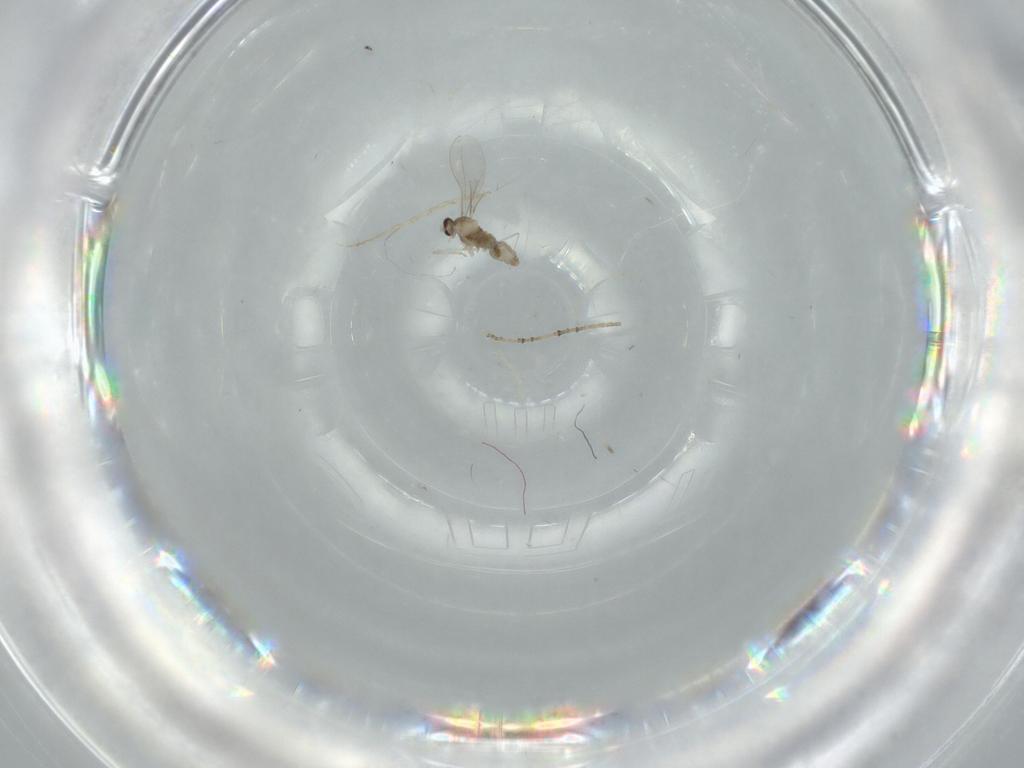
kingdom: Animalia
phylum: Arthropoda
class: Insecta
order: Diptera
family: Cecidomyiidae
